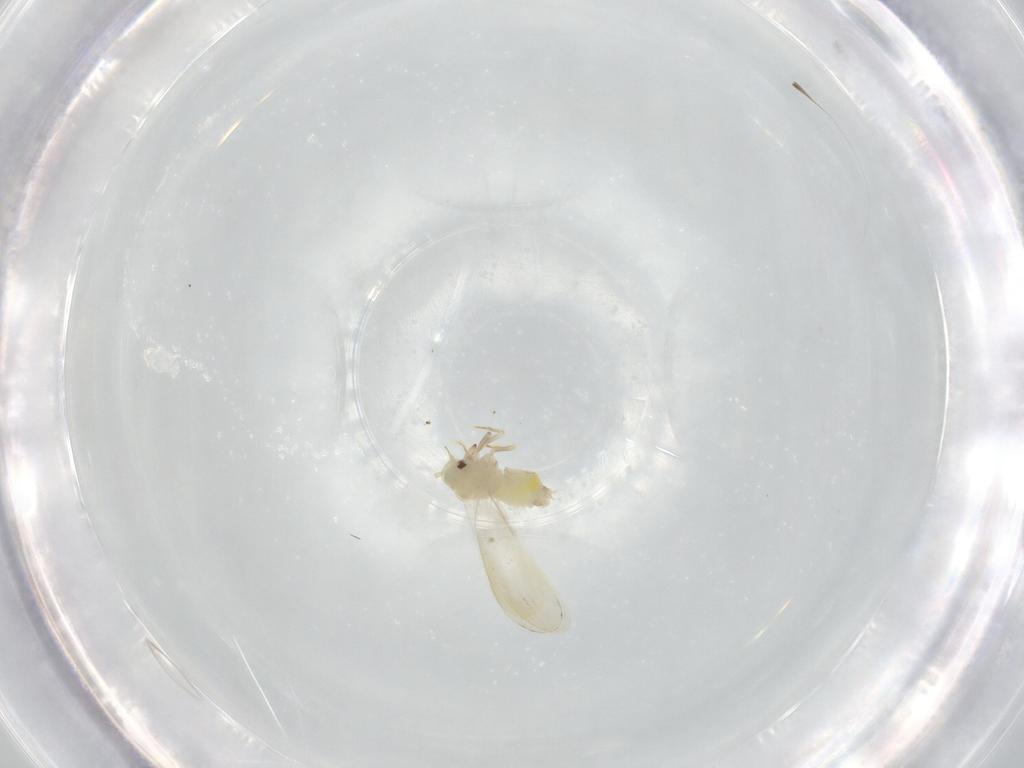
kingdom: Animalia
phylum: Arthropoda
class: Insecta
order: Hemiptera
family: Aleyrodidae
